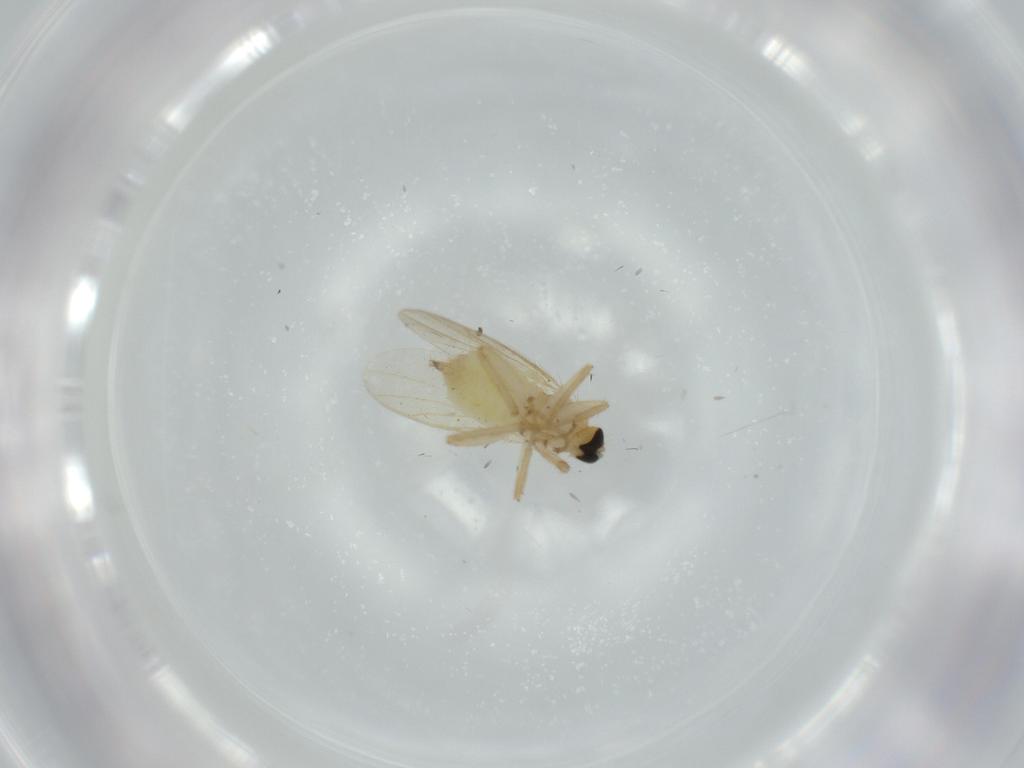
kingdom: Animalia
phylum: Arthropoda
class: Insecta
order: Diptera
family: Hybotidae
